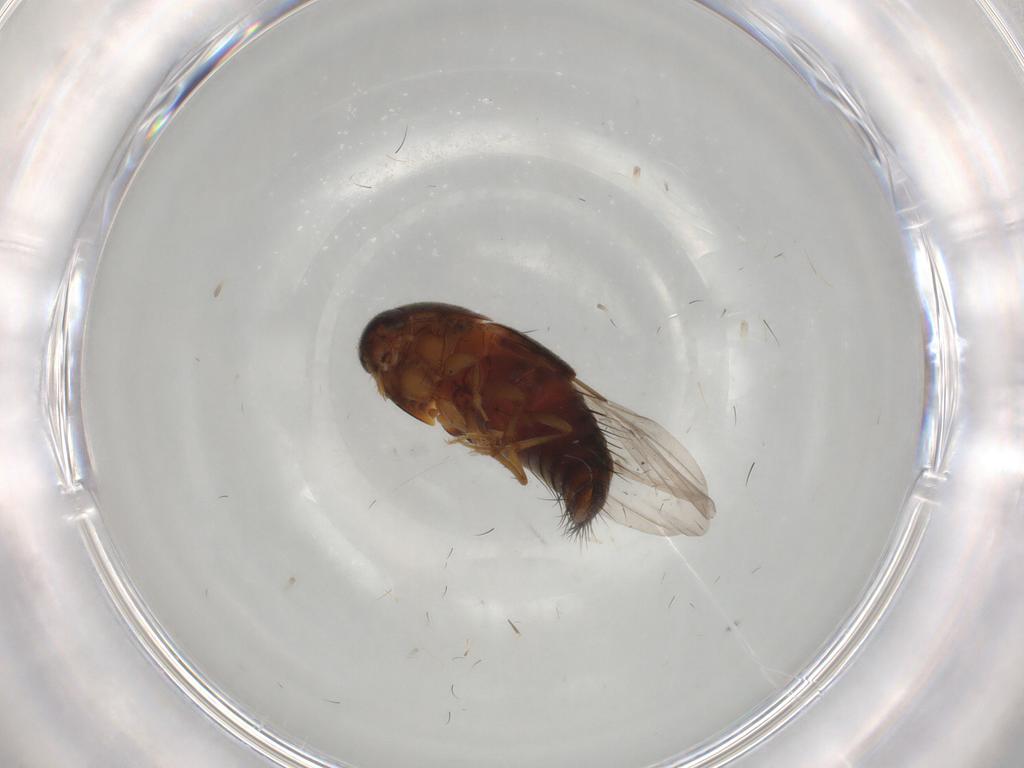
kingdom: Animalia
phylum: Arthropoda
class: Insecta
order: Coleoptera
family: Staphylinidae
